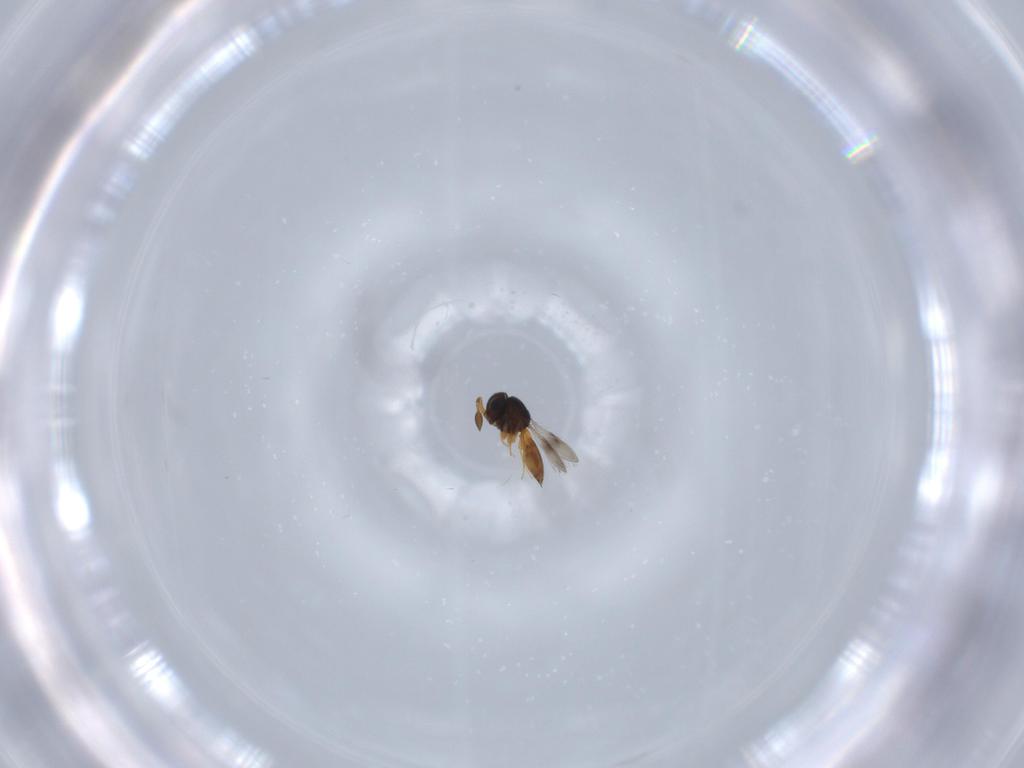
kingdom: Animalia
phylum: Arthropoda
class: Insecta
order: Hymenoptera
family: Scelionidae
